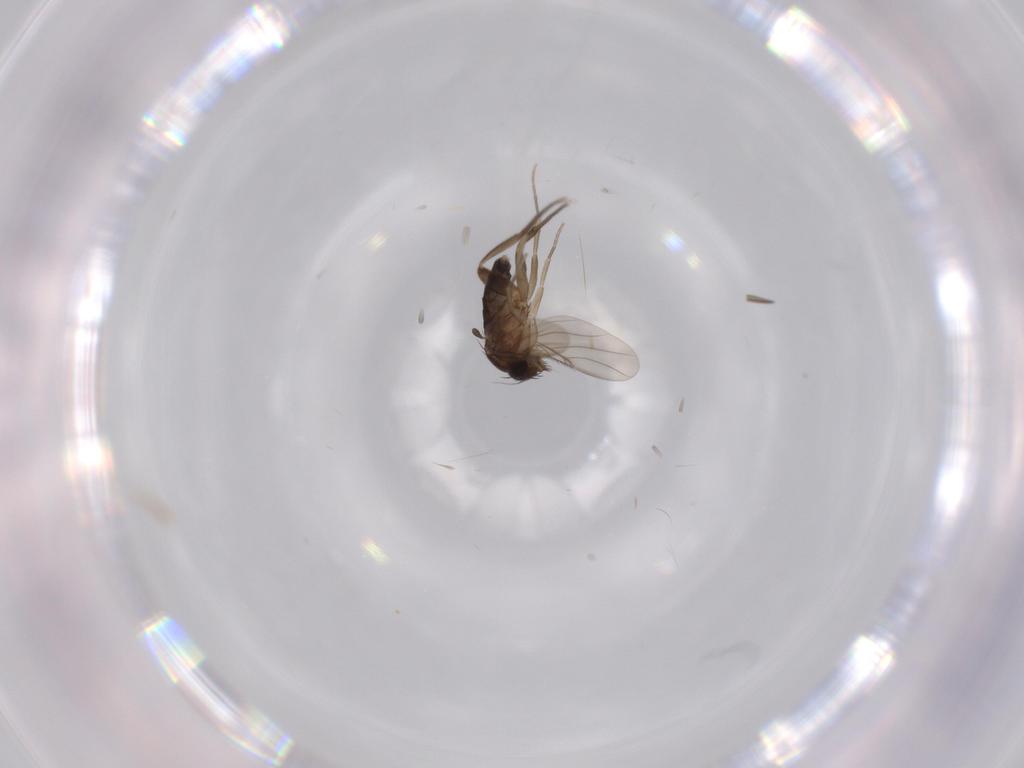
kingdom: Animalia
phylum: Arthropoda
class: Insecta
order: Diptera
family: Phoridae
